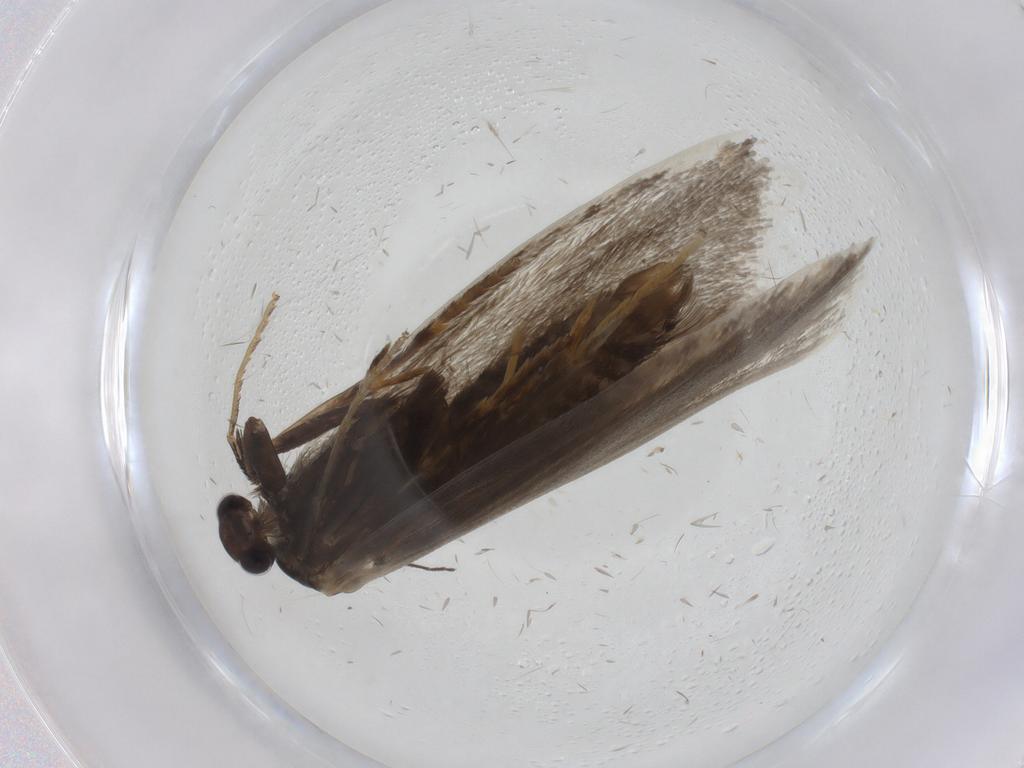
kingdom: Animalia
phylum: Arthropoda
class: Insecta
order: Lepidoptera
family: Psychidae
